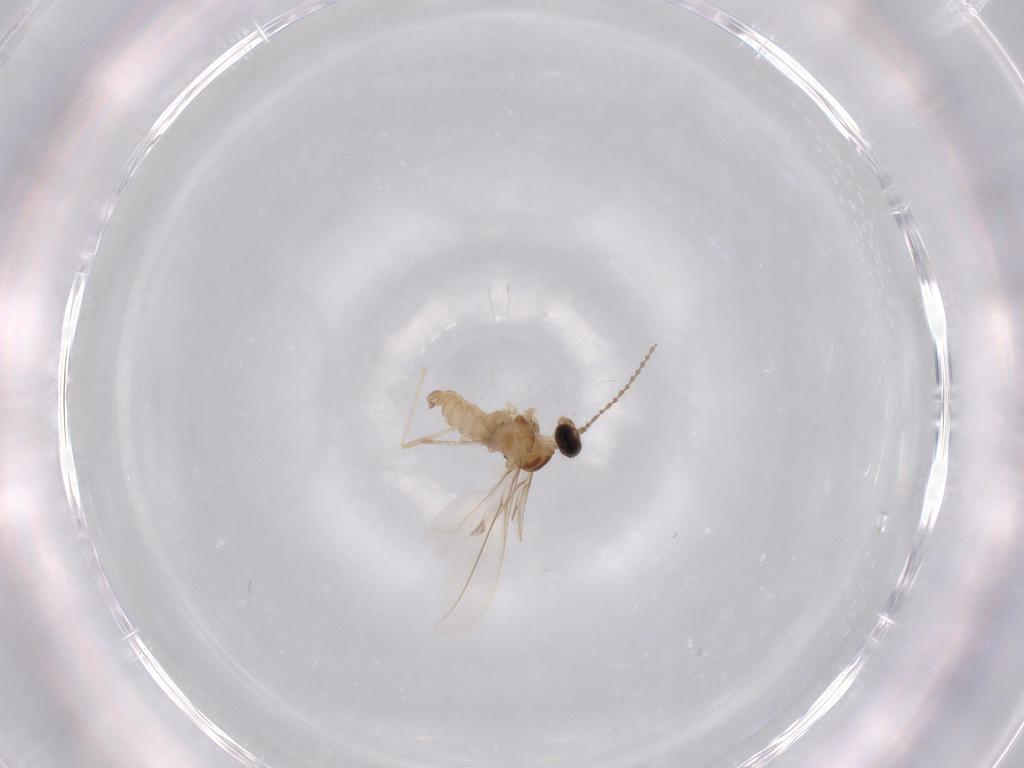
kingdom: Animalia
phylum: Arthropoda
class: Insecta
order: Diptera
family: Cecidomyiidae
